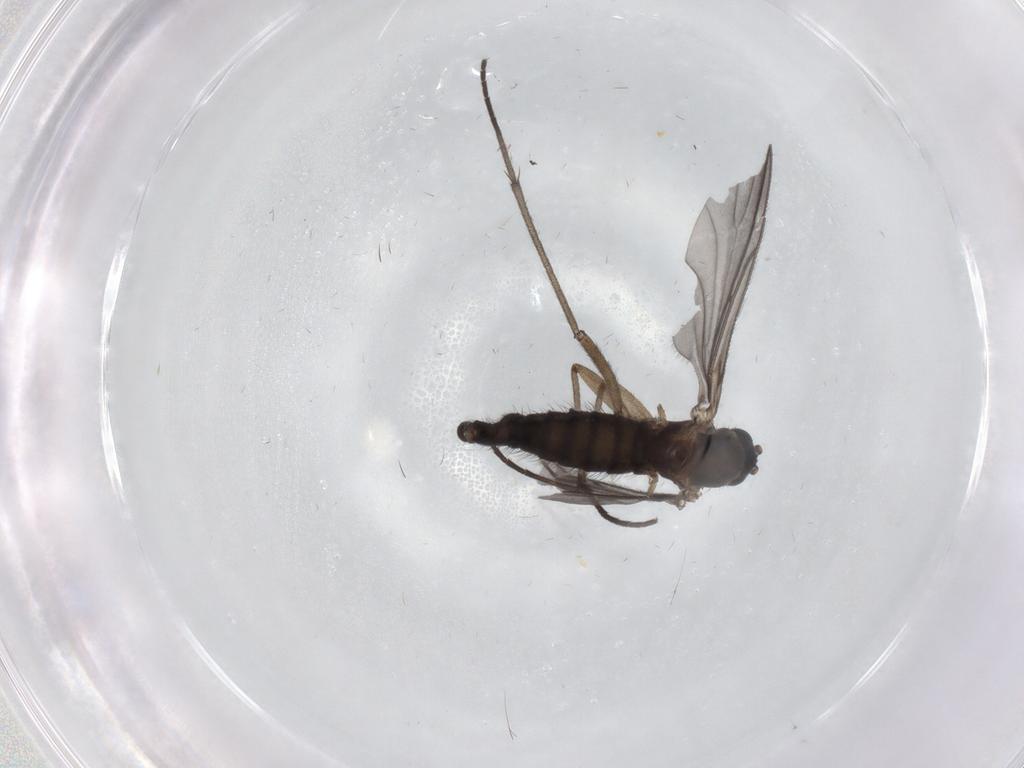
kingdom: Animalia
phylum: Arthropoda
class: Insecta
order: Diptera
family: Sciaridae
